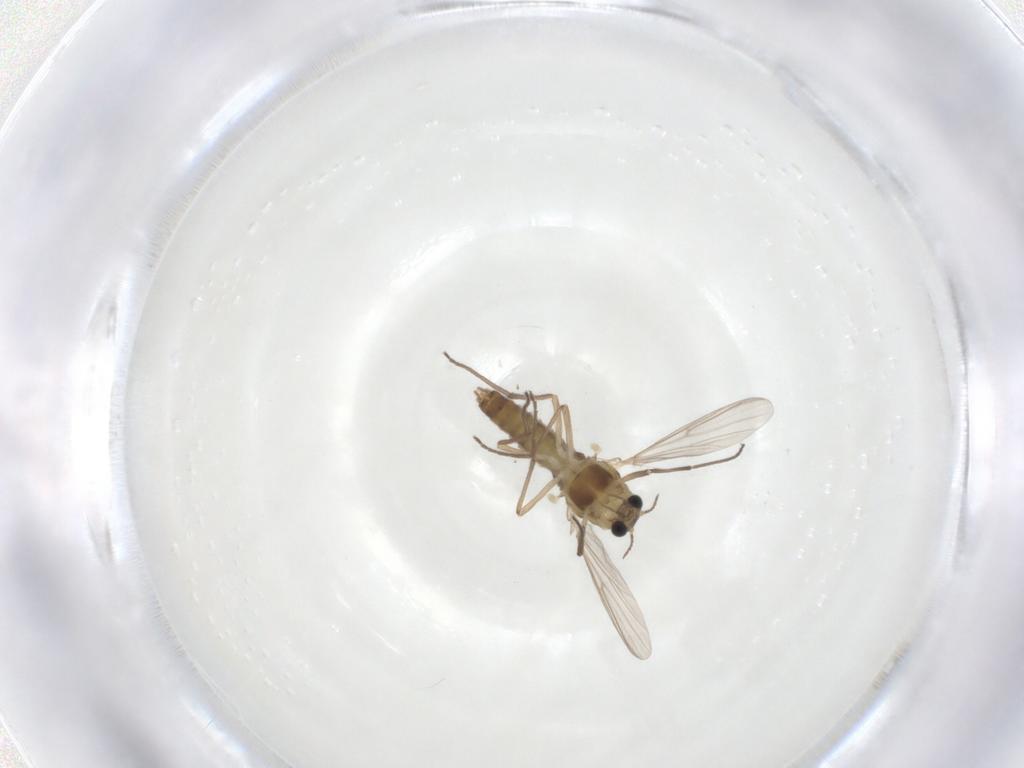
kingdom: Animalia
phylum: Arthropoda
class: Insecta
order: Diptera
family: Chironomidae
